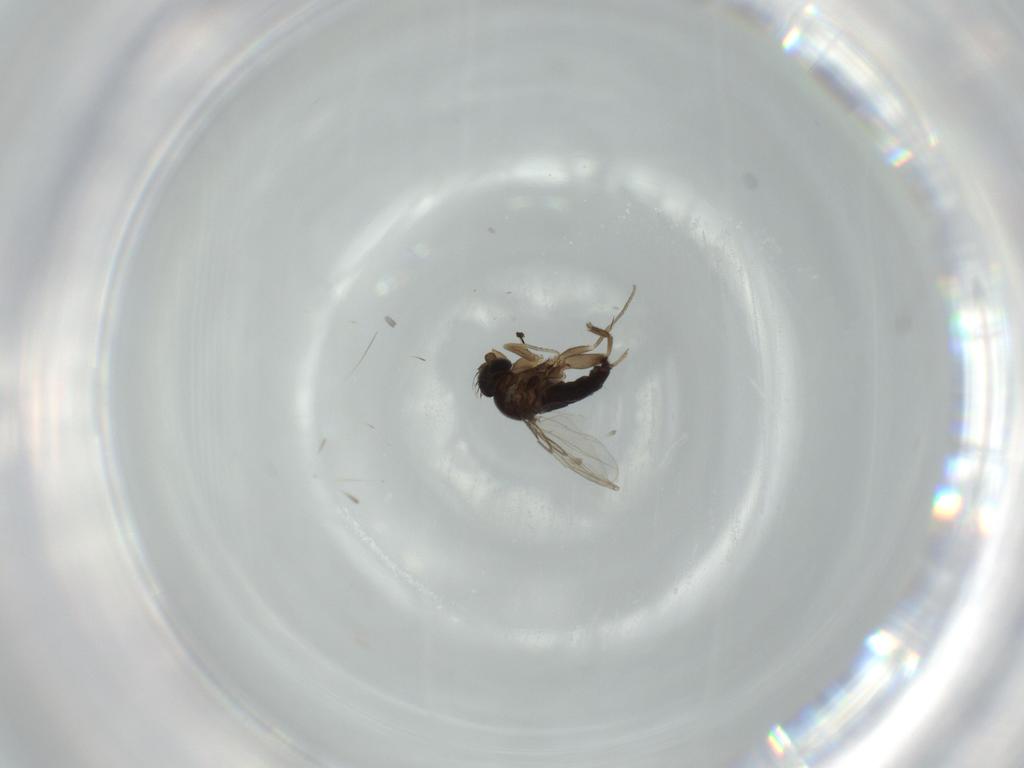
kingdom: Animalia
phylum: Arthropoda
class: Insecta
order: Diptera
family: Phoridae
